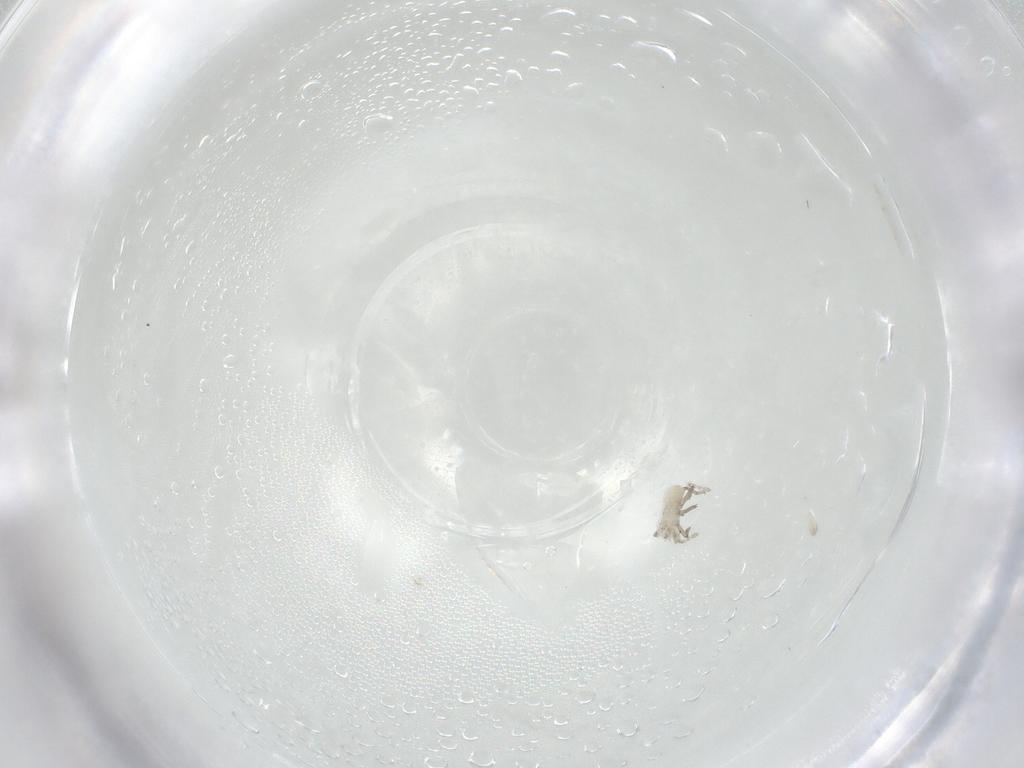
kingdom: Animalia
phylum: Arthropoda
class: Insecta
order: Hemiptera
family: Aphididae
